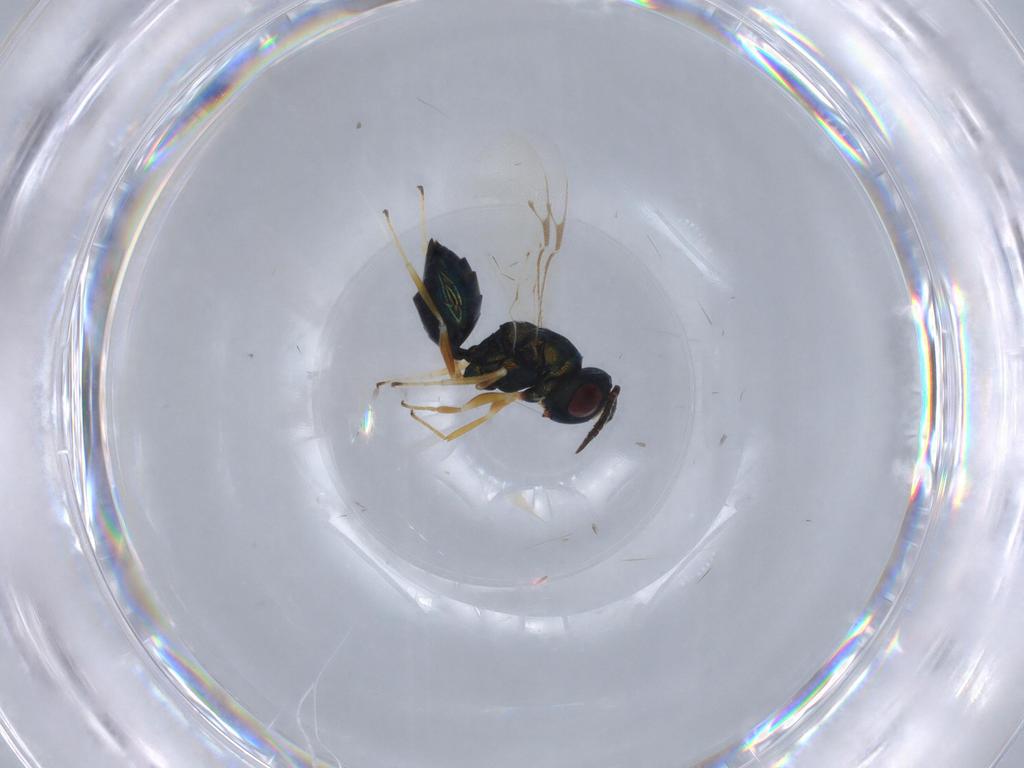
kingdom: Animalia
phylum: Arthropoda
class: Insecta
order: Hymenoptera
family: Pteromalidae
